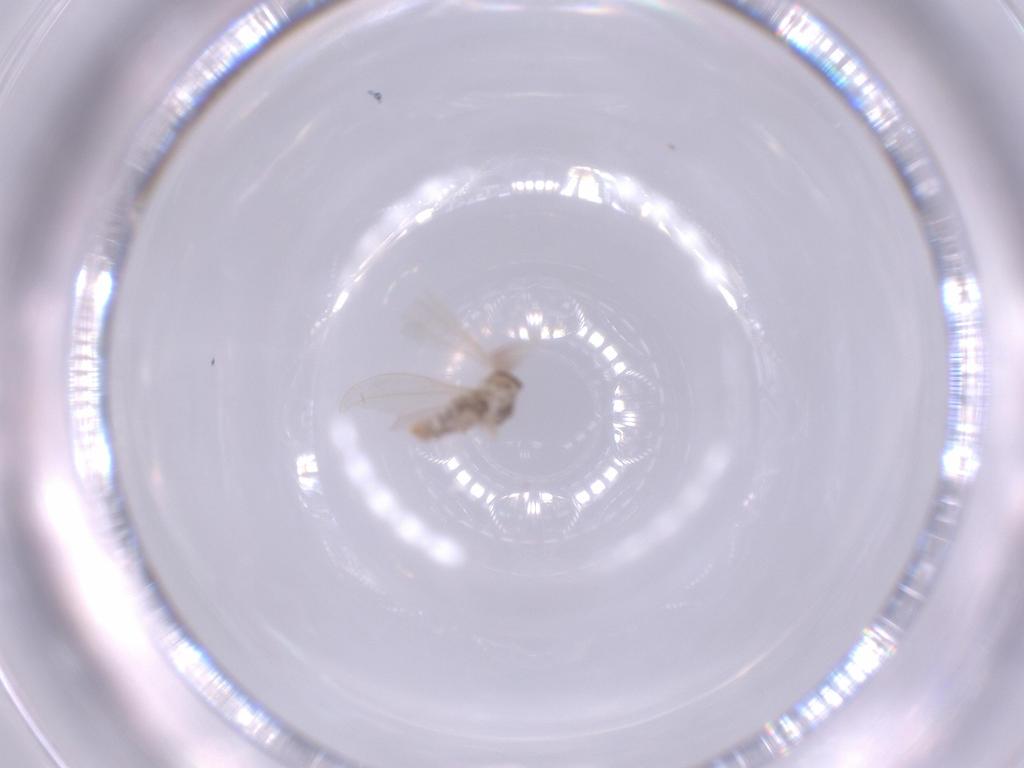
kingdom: Animalia
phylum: Arthropoda
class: Insecta
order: Diptera
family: Cecidomyiidae
